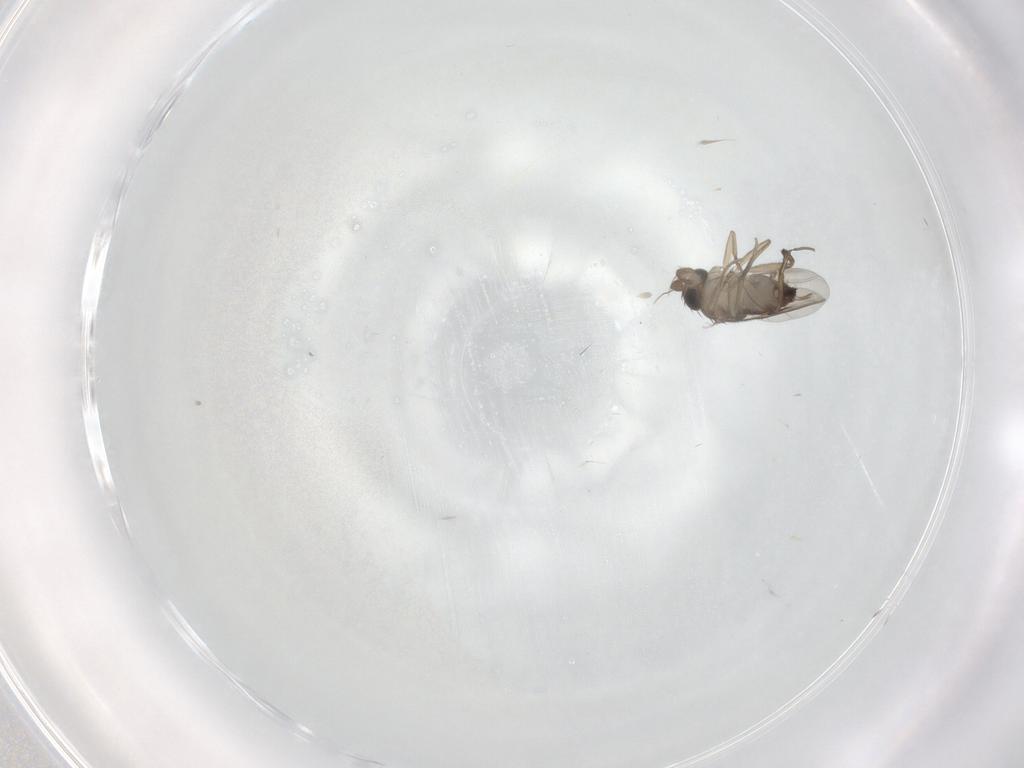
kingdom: Animalia
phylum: Arthropoda
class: Insecta
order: Diptera
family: Phoridae
